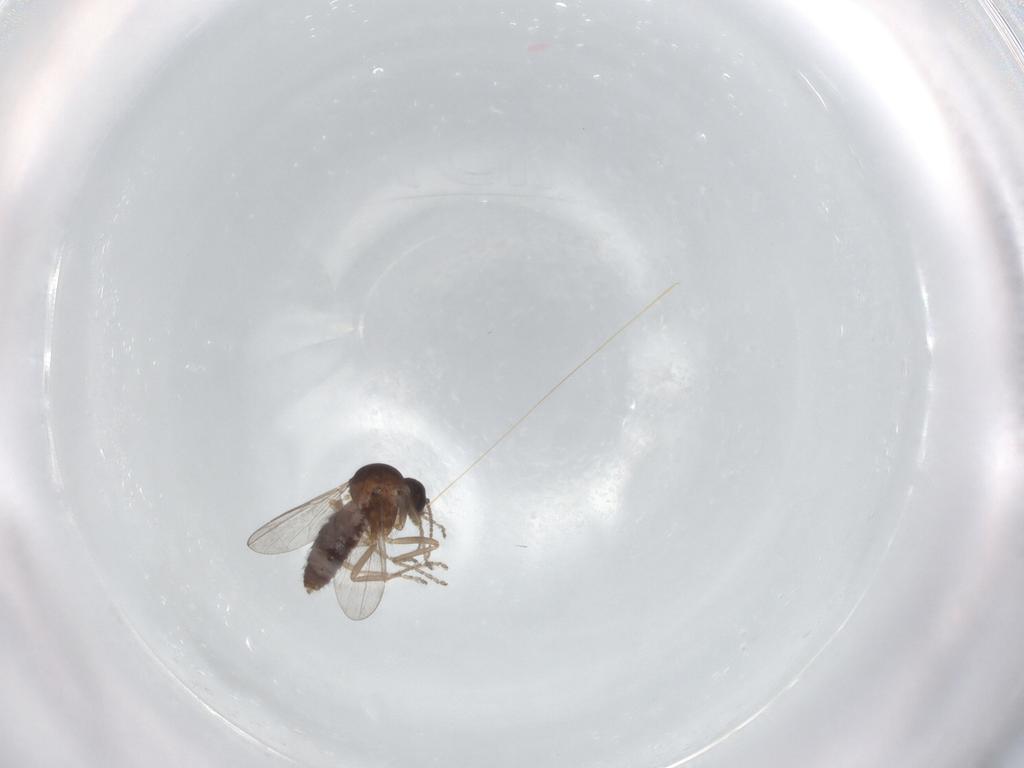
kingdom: Animalia
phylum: Arthropoda
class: Insecta
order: Diptera
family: Ceratopogonidae
